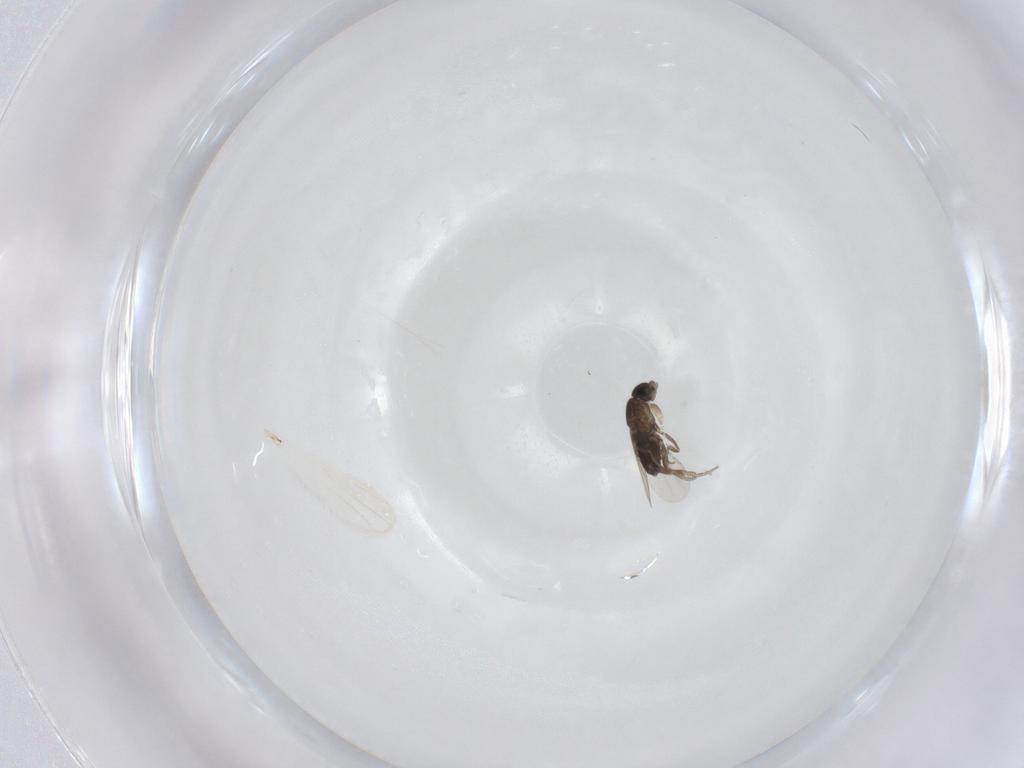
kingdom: Animalia
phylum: Arthropoda
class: Insecta
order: Diptera
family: Phoridae
